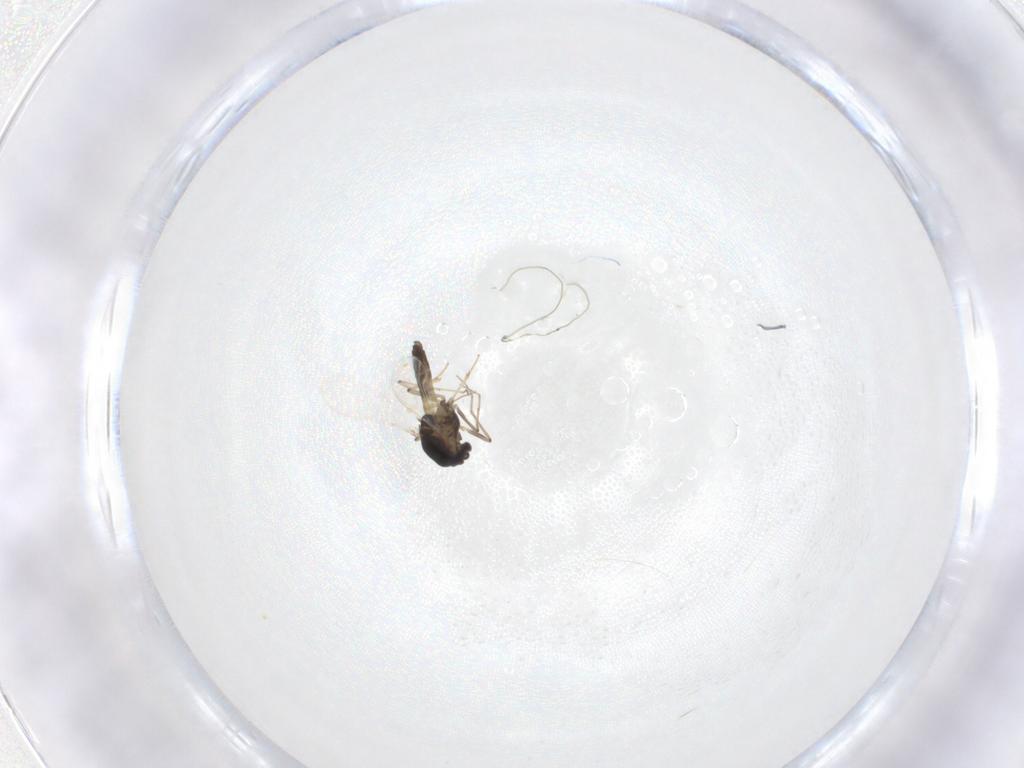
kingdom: Animalia
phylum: Arthropoda
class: Insecta
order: Diptera
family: Chironomidae
